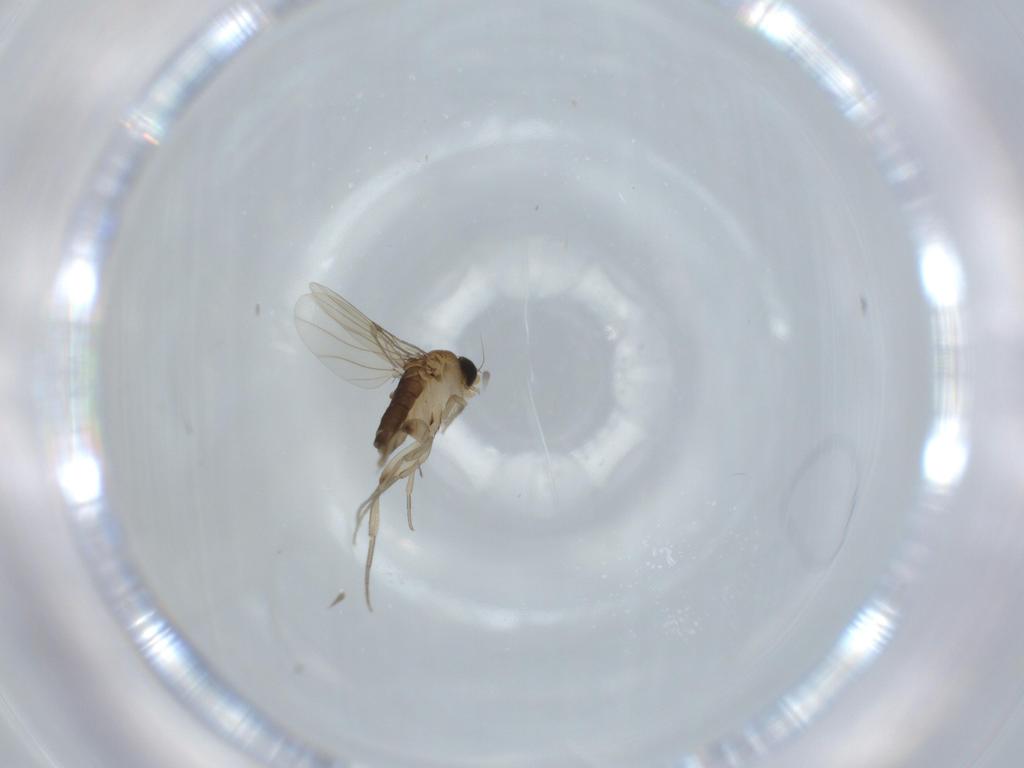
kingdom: Animalia
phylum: Arthropoda
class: Insecta
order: Diptera
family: Phoridae
